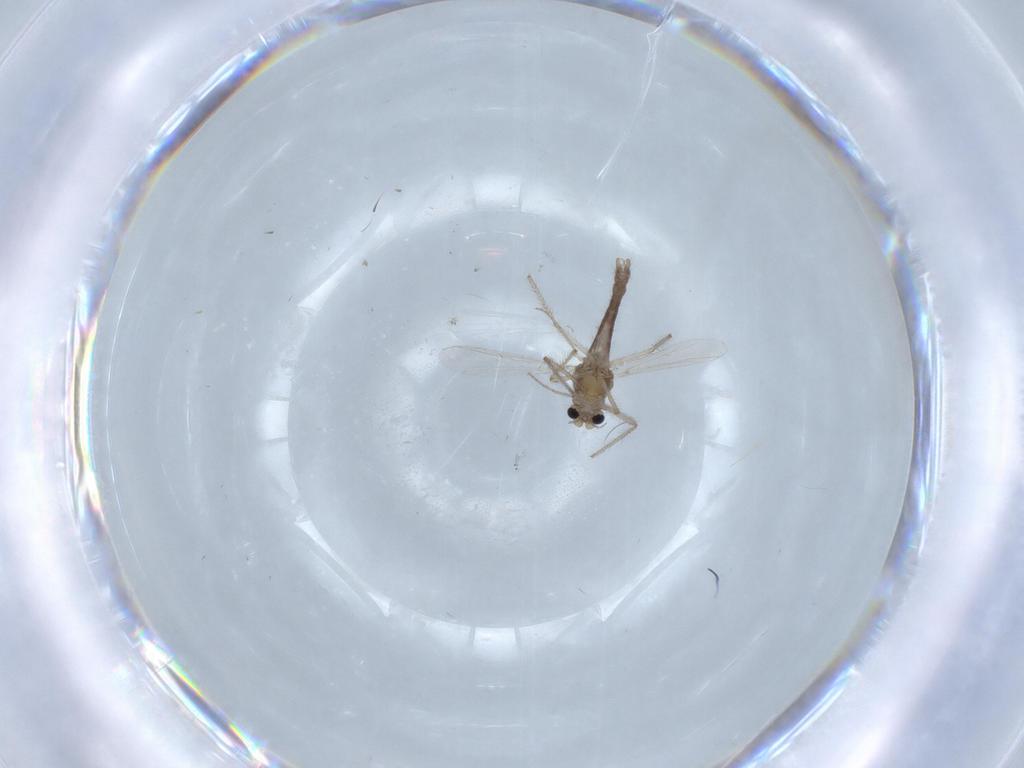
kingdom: Animalia
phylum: Arthropoda
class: Insecta
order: Diptera
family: Chironomidae
